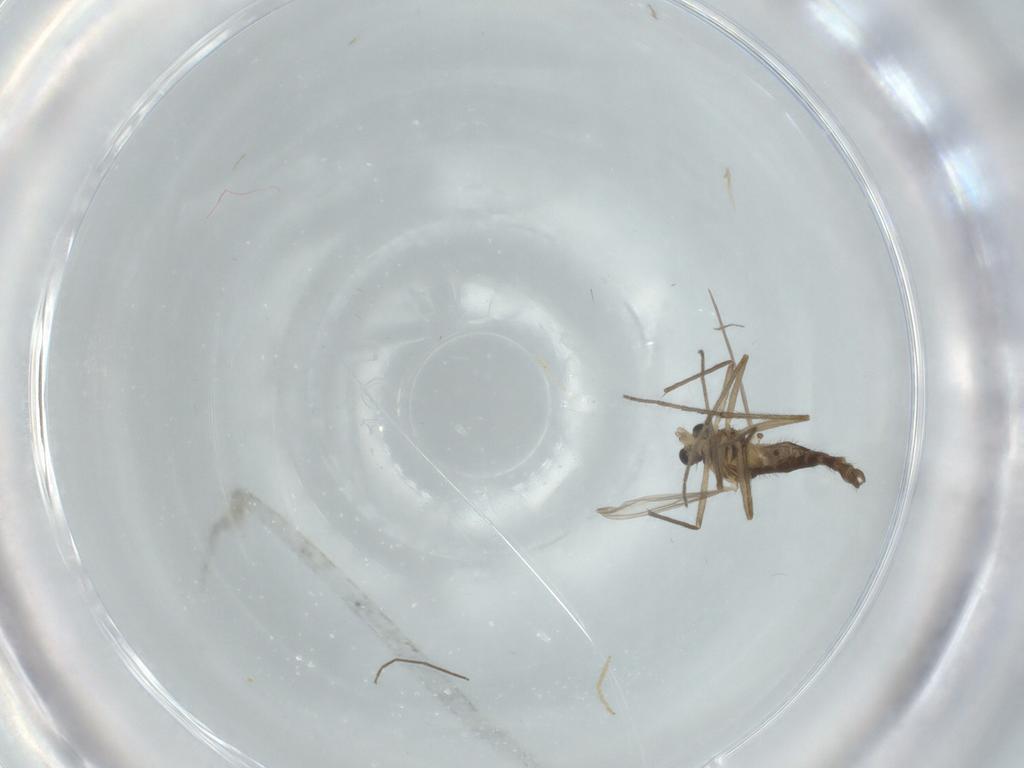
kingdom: Animalia
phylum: Arthropoda
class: Insecta
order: Diptera
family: Chironomidae
